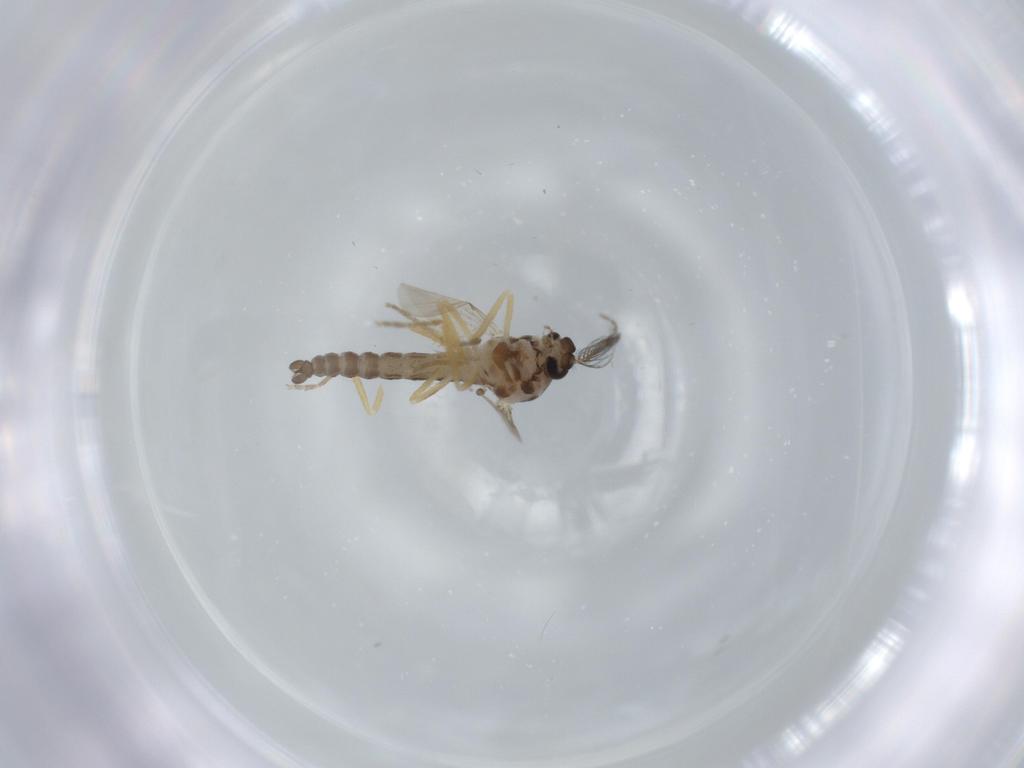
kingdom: Animalia
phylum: Arthropoda
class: Insecta
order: Diptera
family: Ceratopogonidae
